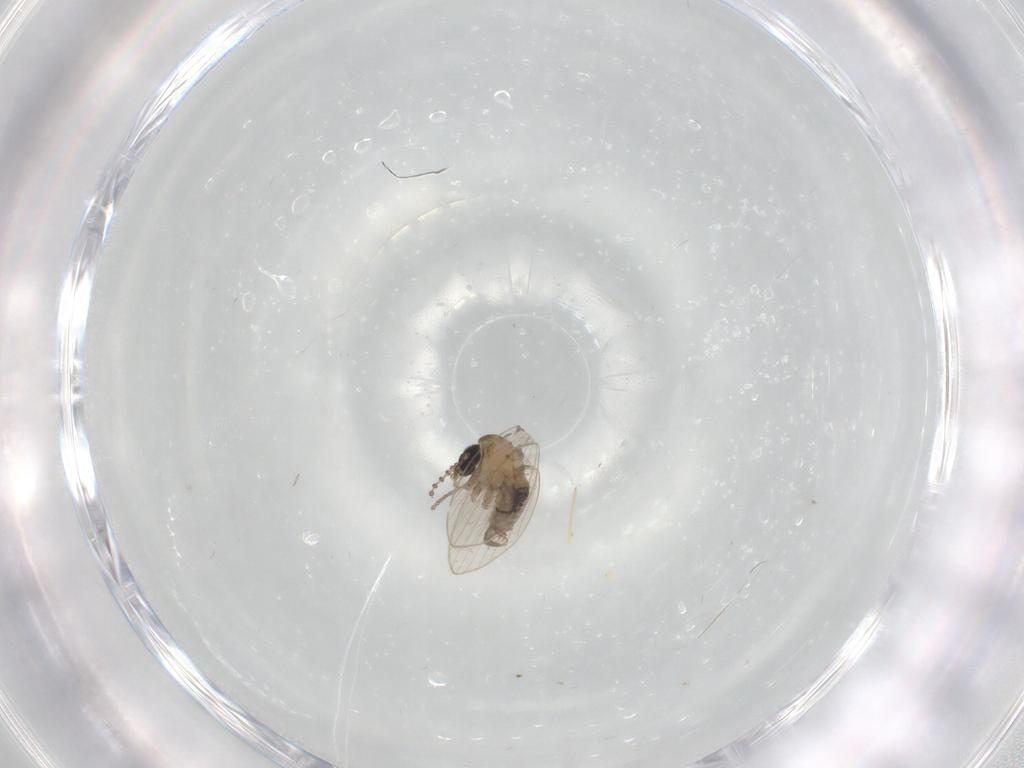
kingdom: Animalia
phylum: Arthropoda
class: Insecta
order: Diptera
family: Psychodidae
